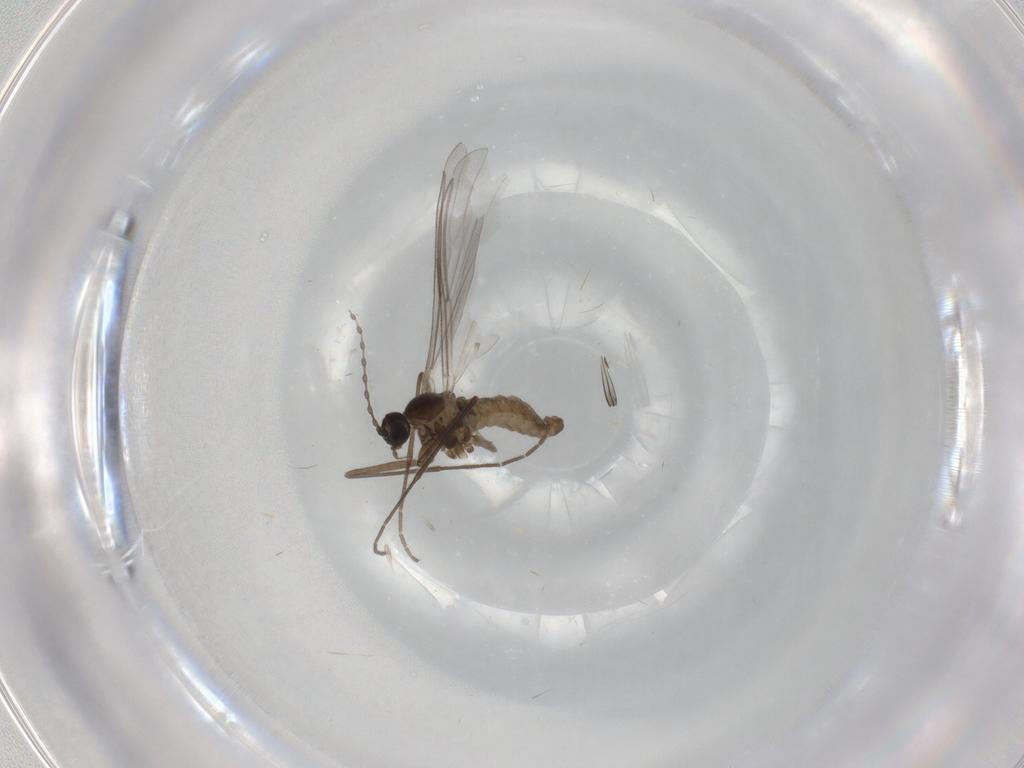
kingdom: Animalia
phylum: Arthropoda
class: Insecta
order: Diptera
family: Cecidomyiidae
